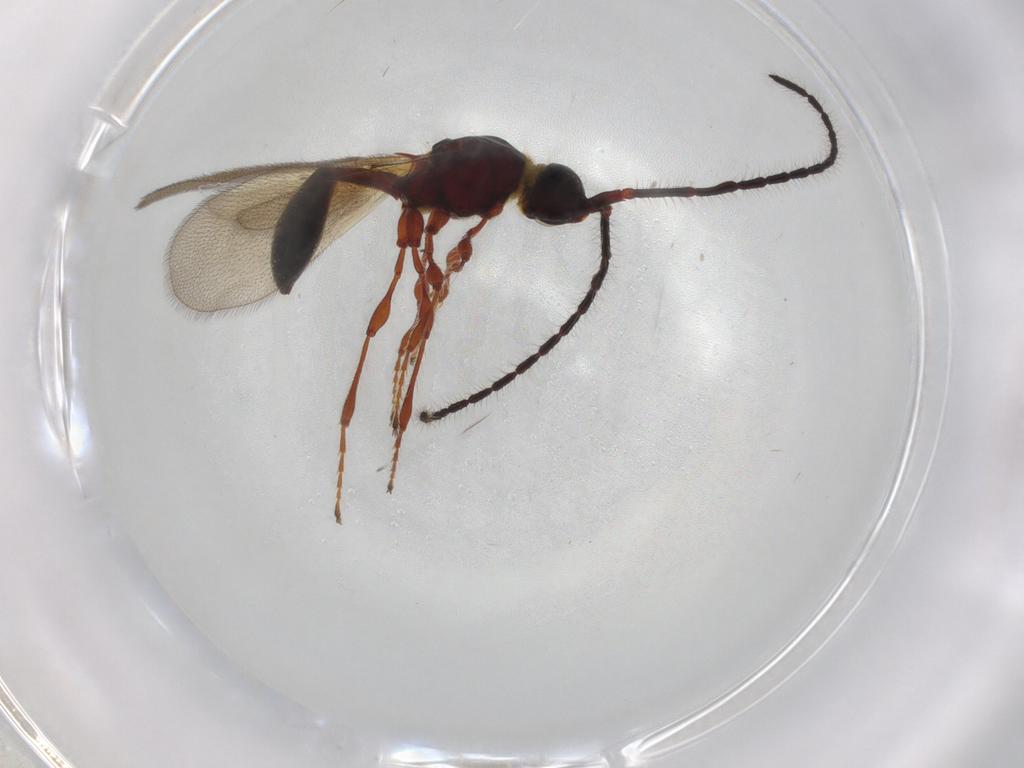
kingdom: Animalia
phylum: Arthropoda
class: Insecta
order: Hymenoptera
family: Diapriidae
